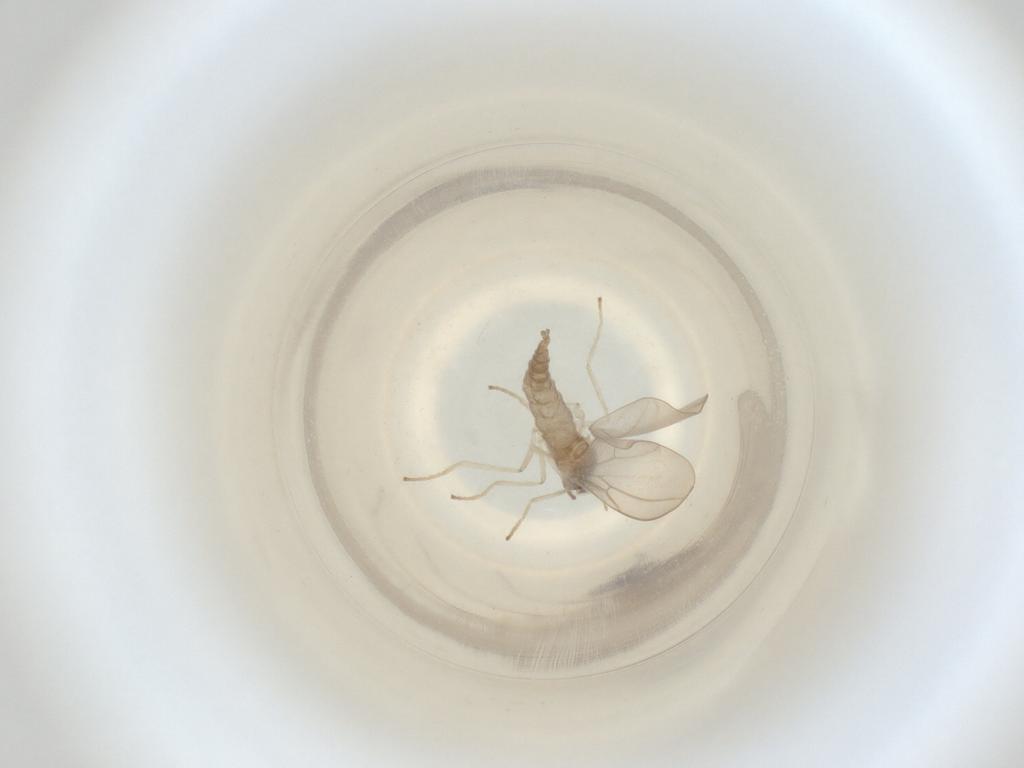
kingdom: Animalia
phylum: Arthropoda
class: Insecta
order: Diptera
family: Cecidomyiidae
